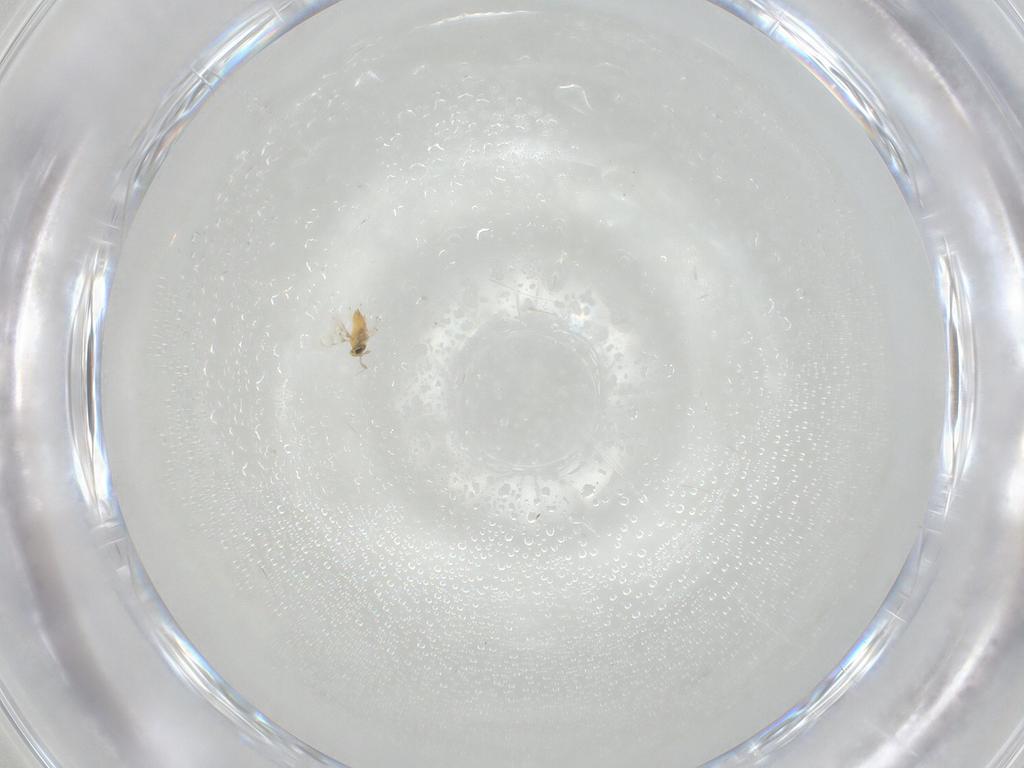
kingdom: Animalia
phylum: Arthropoda
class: Insecta
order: Hymenoptera
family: Trichogrammatidae
